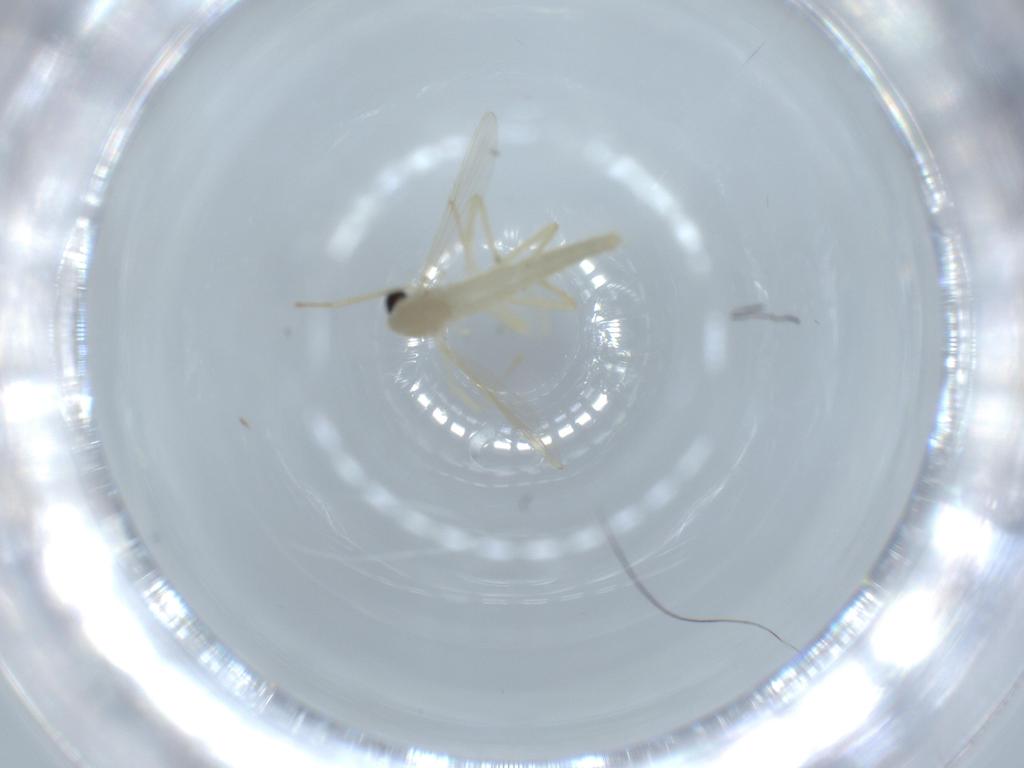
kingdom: Animalia
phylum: Arthropoda
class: Insecta
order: Diptera
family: Chironomidae
